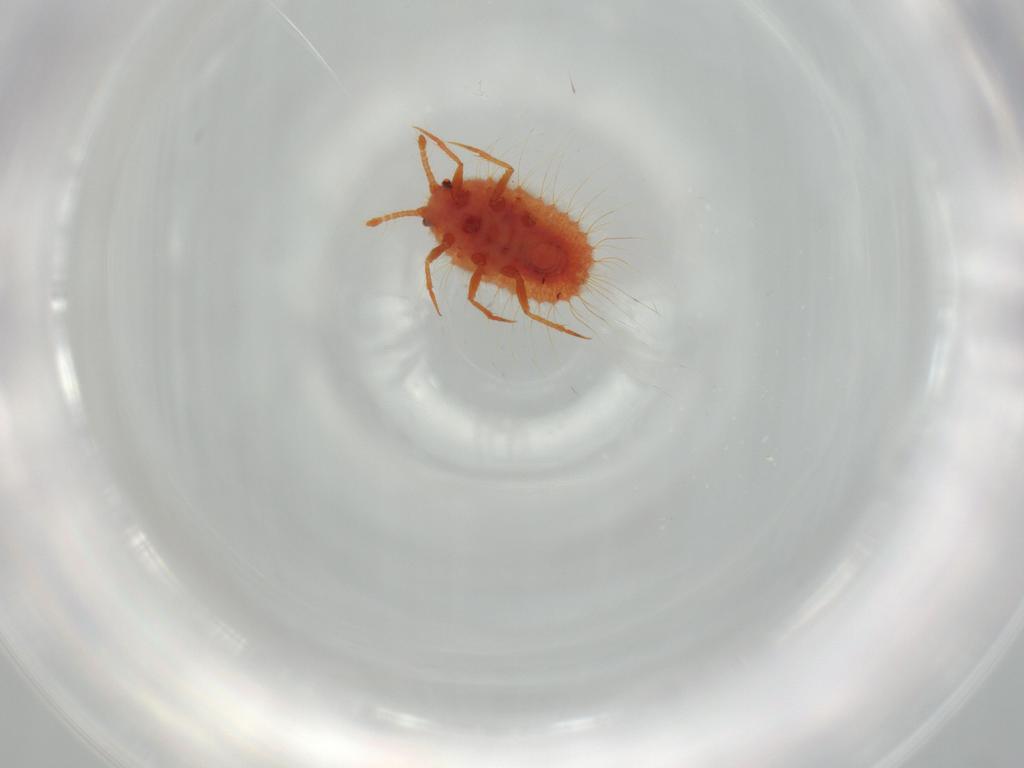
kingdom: Animalia
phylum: Arthropoda
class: Insecta
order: Hemiptera
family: Coccoidea_incertae_sedis
